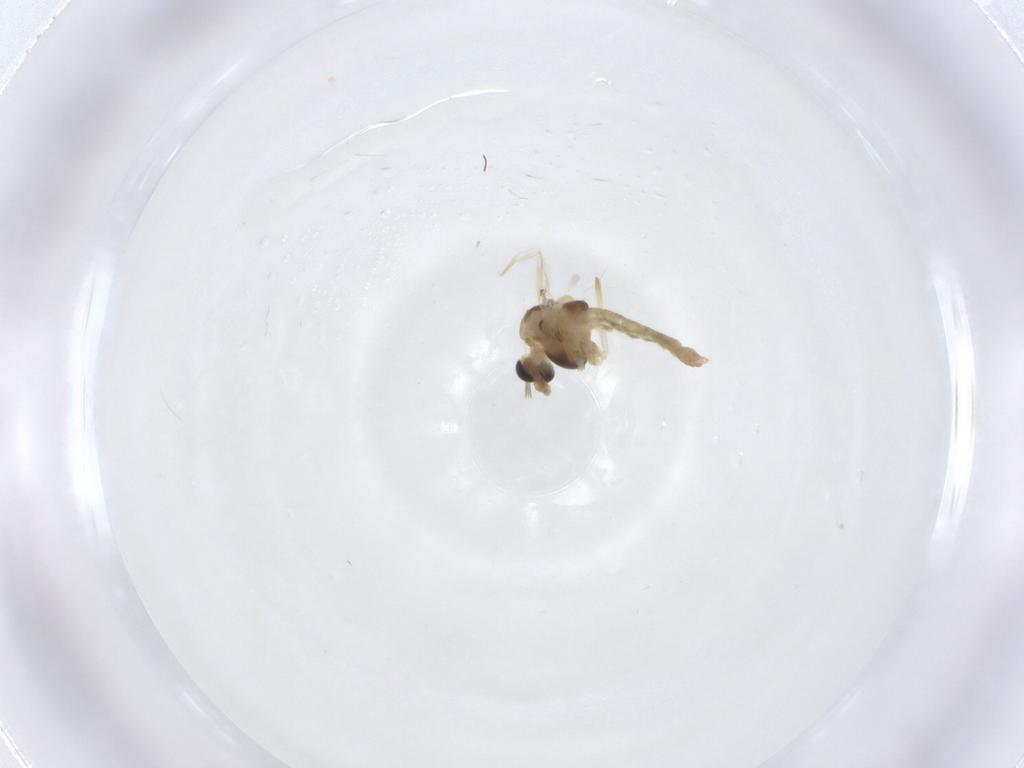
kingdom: Animalia
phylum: Arthropoda
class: Insecta
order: Diptera
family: Chironomidae
